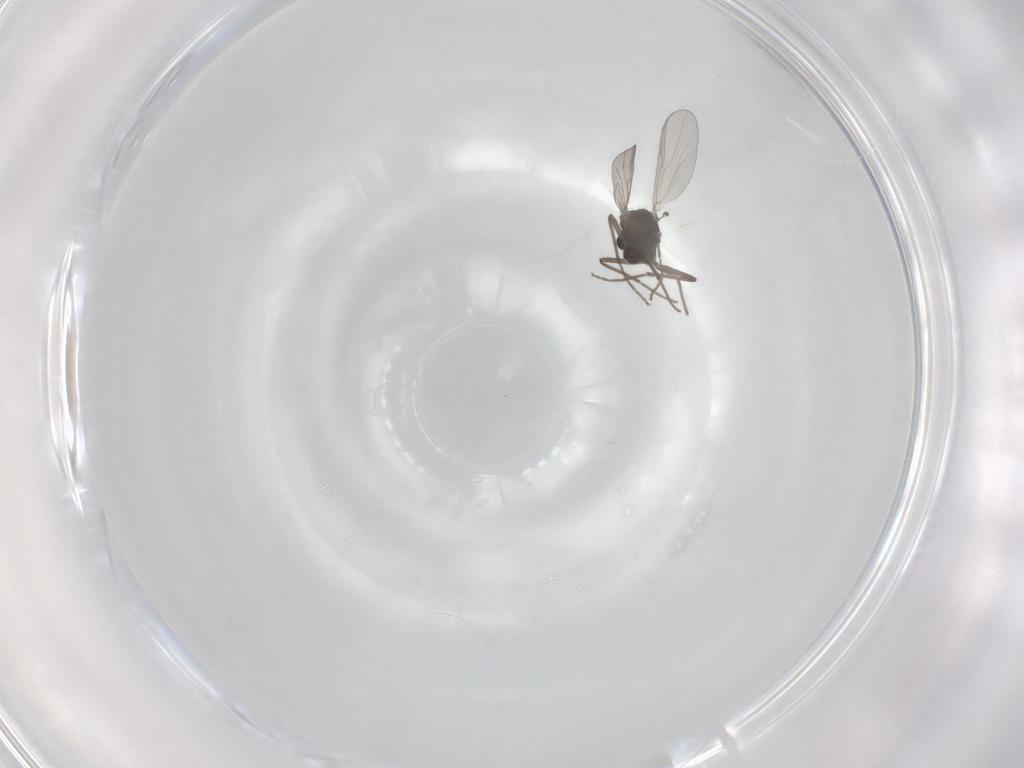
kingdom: Animalia
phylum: Arthropoda
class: Insecta
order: Diptera
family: Chironomidae
